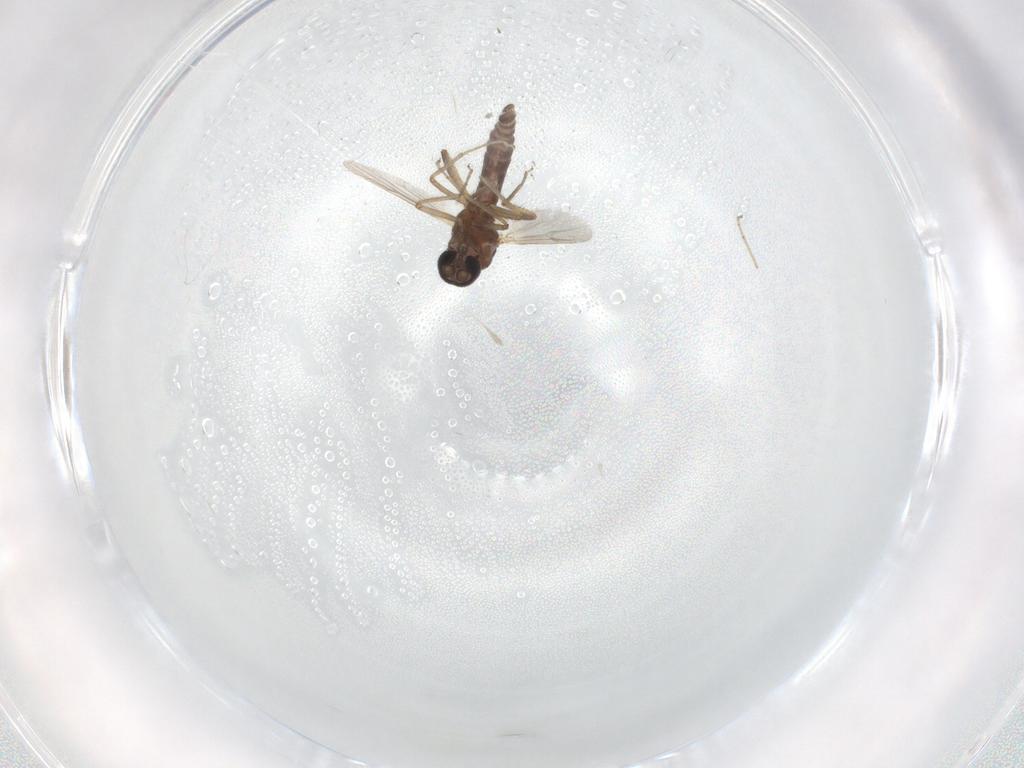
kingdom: Animalia
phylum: Arthropoda
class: Insecta
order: Diptera
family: Ceratopogonidae
